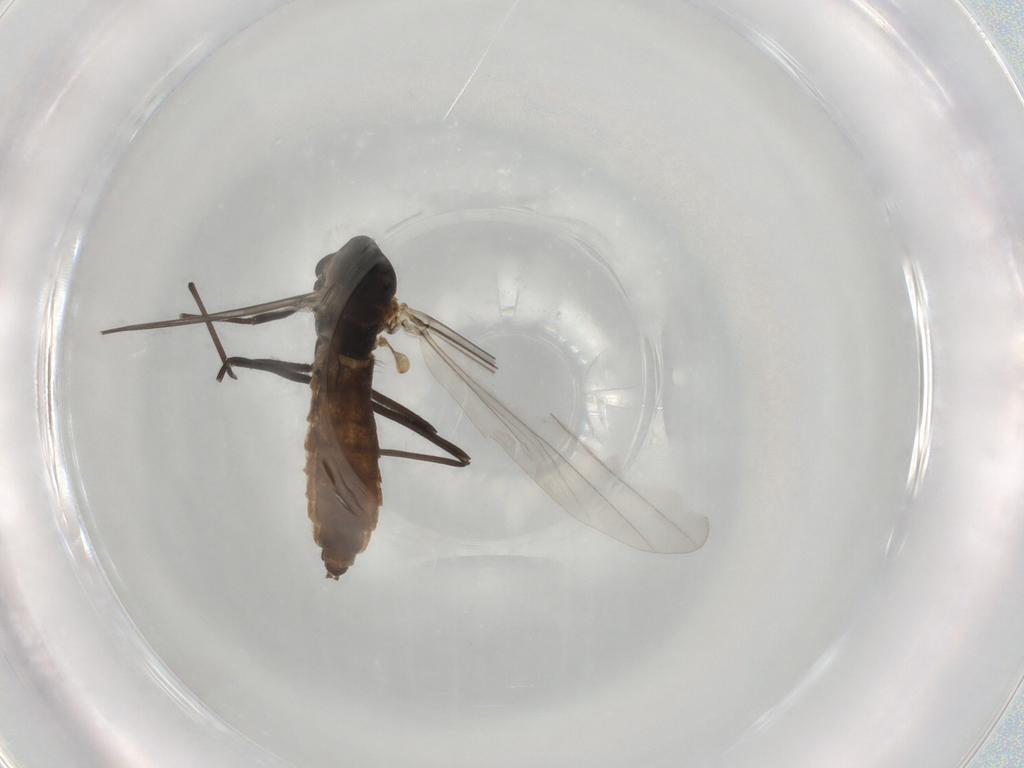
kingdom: Animalia
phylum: Arthropoda
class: Insecta
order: Diptera
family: Chironomidae
